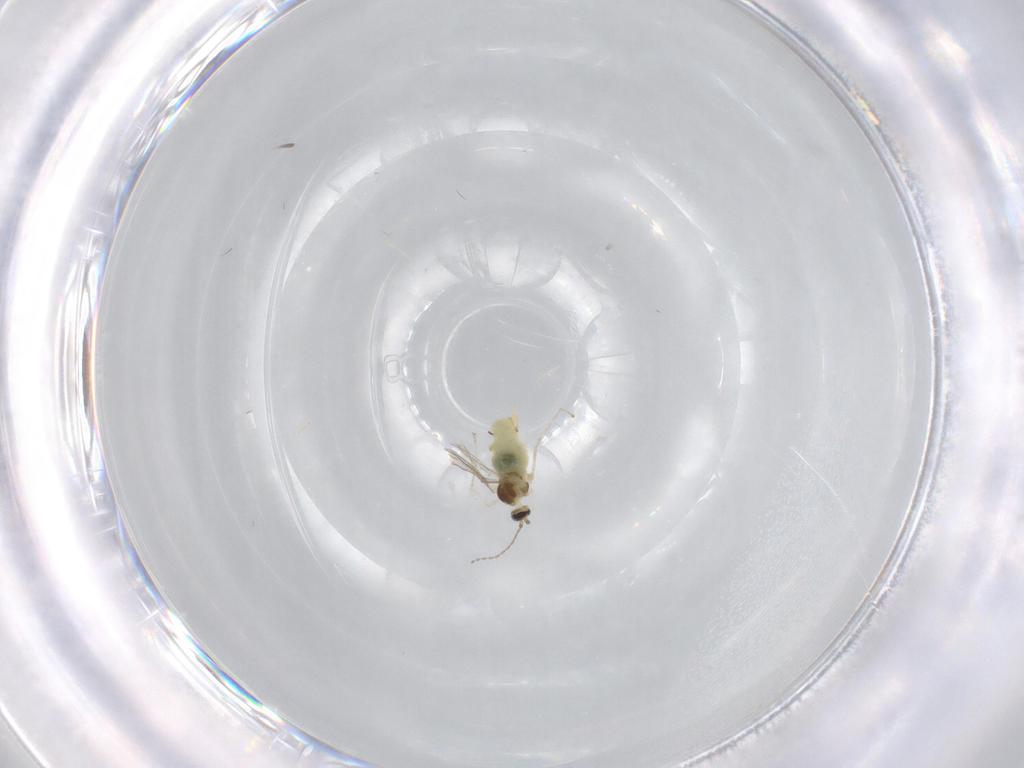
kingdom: Animalia
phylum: Arthropoda
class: Insecta
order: Diptera
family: Cecidomyiidae
